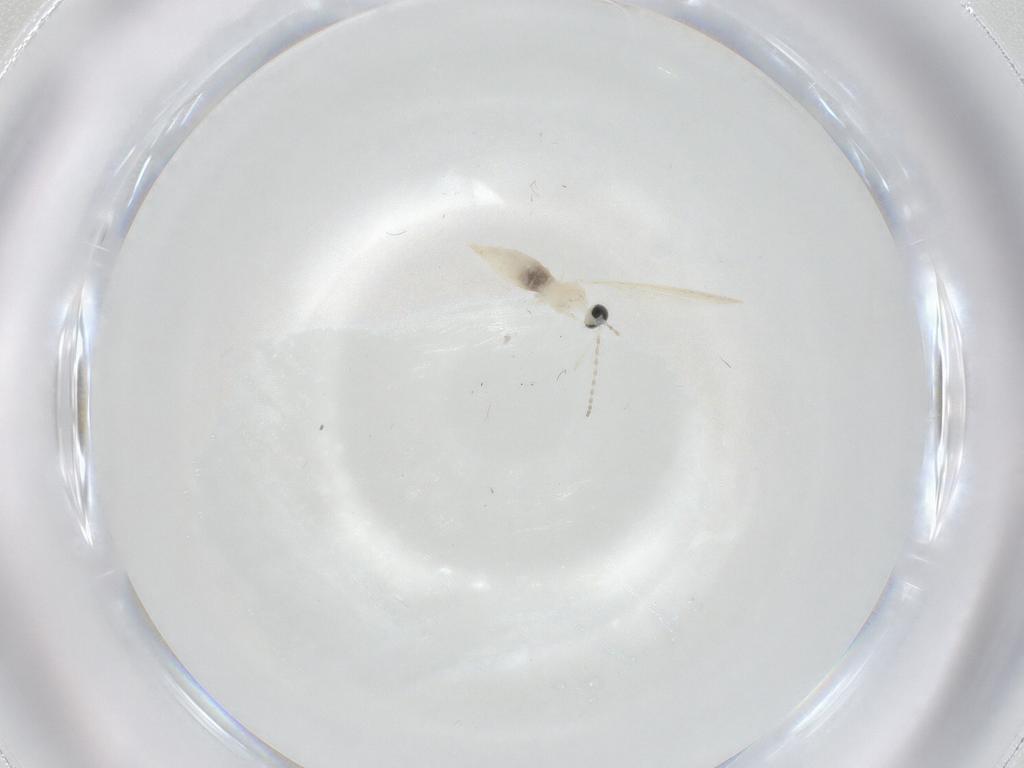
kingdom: Animalia
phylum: Arthropoda
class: Insecta
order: Diptera
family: Cecidomyiidae
